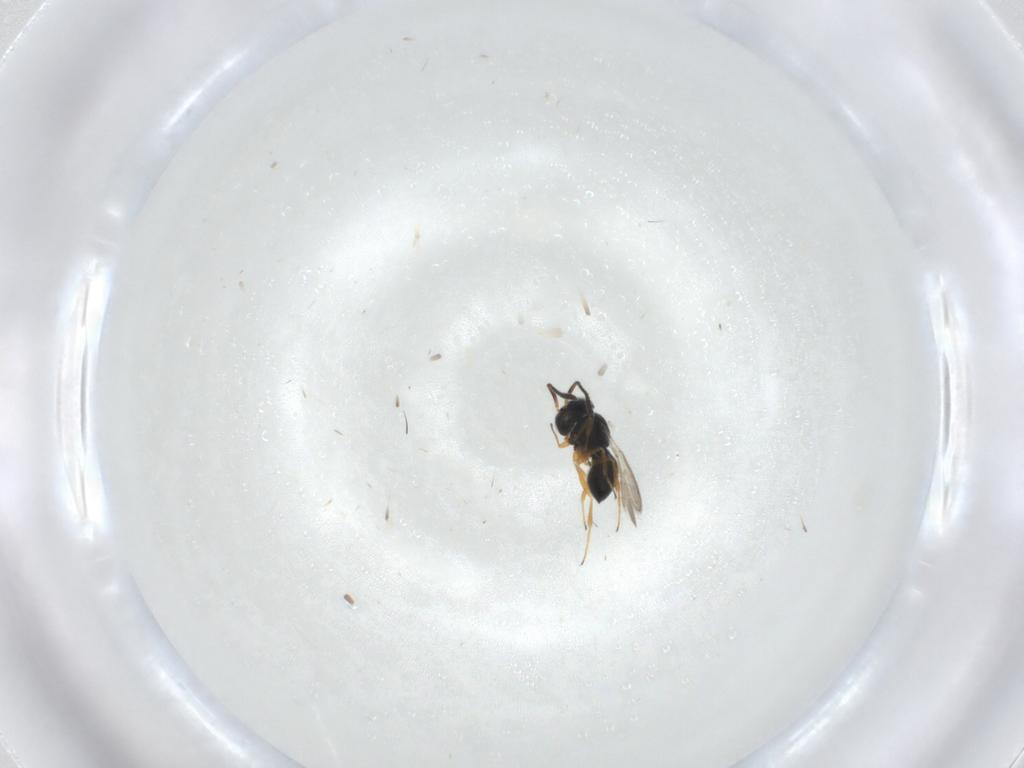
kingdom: Animalia
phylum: Arthropoda
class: Insecta
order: Hymenoptera
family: Scelionidae
